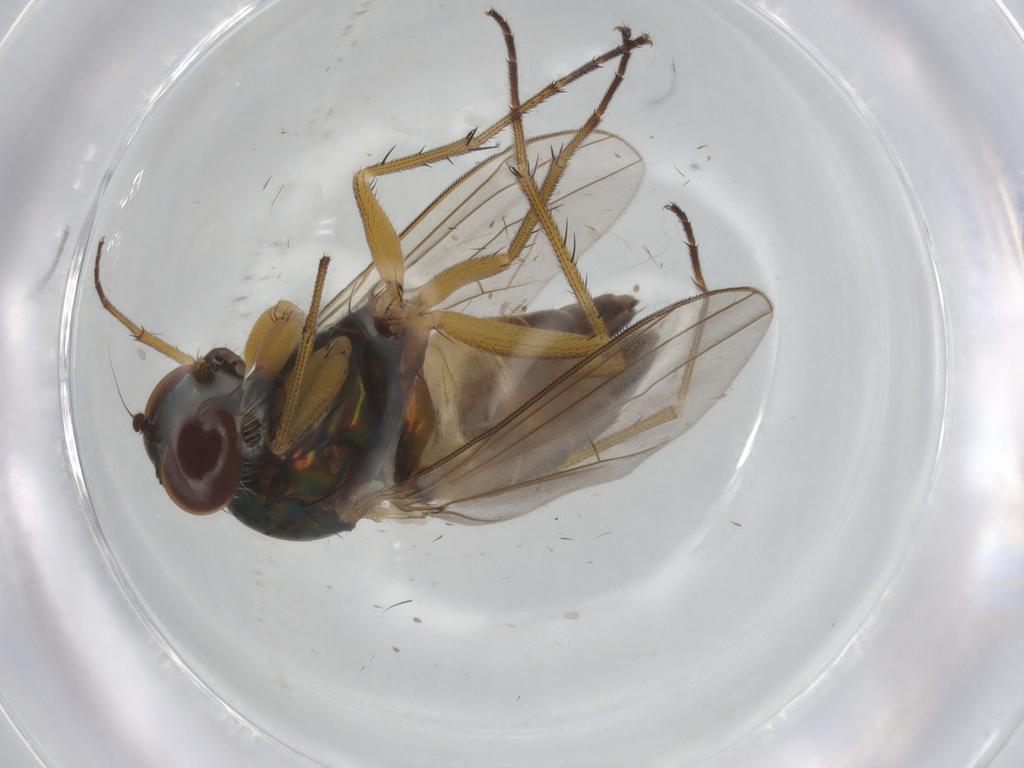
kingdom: Animalia
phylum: Arthropoda
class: Insecta
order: Diptera
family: Dolichopodidae
